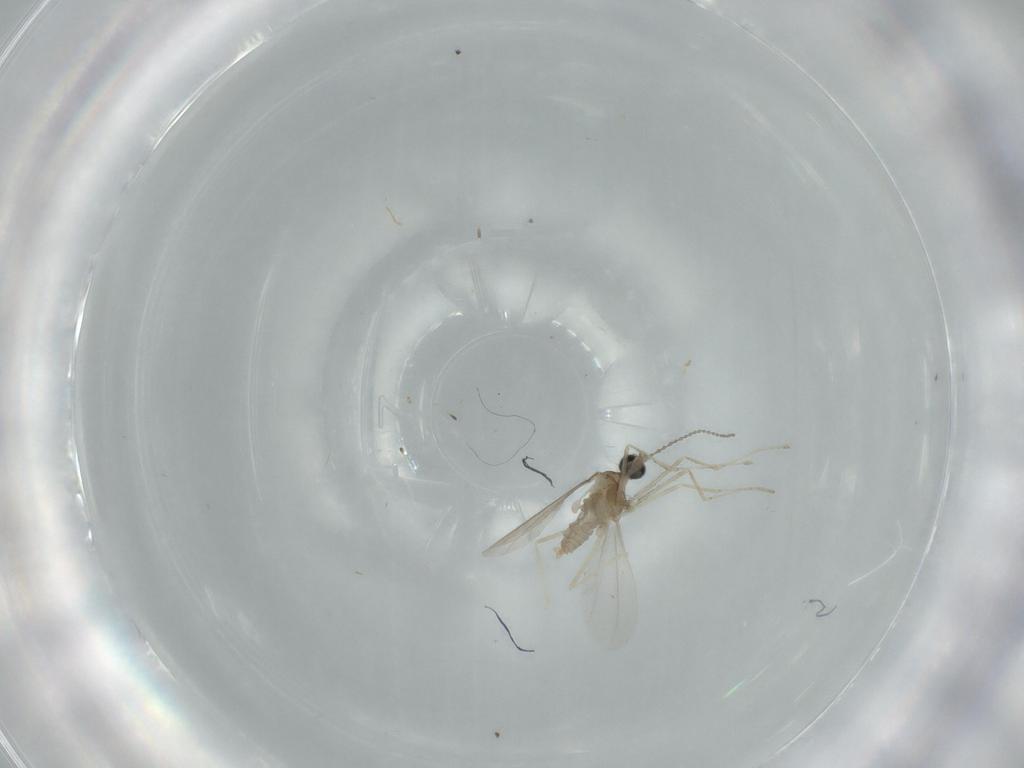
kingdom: Animalia
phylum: Arthropoda
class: Insecta
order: Diptera
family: Cecidomyiidae
